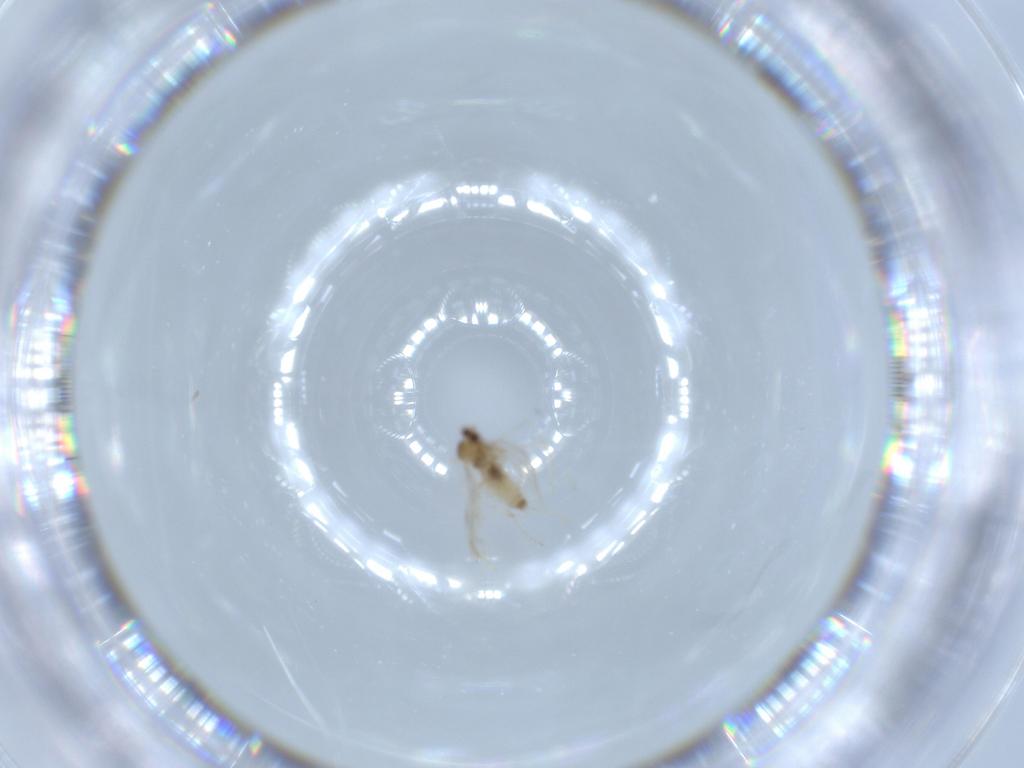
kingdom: Animalia
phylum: Arthropoda
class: Insecta
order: Diptera
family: Cecidomyiidae
